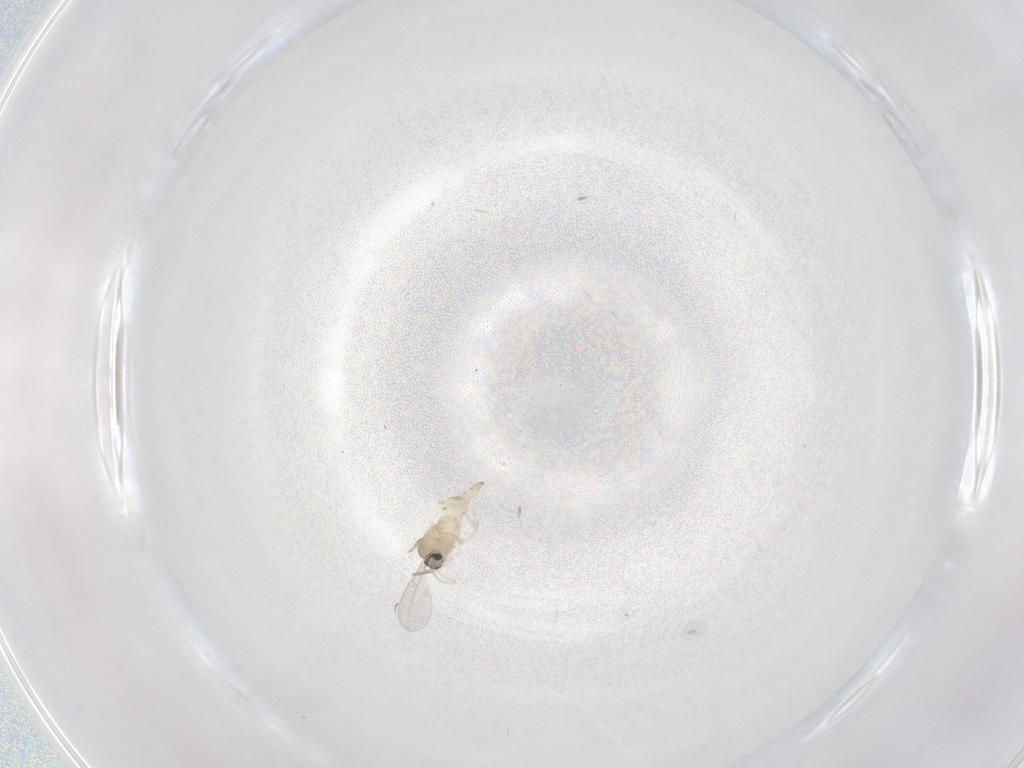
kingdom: Animalia
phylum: Arthropoda
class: Insecta
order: Diptera
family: Cecidomyiidae
